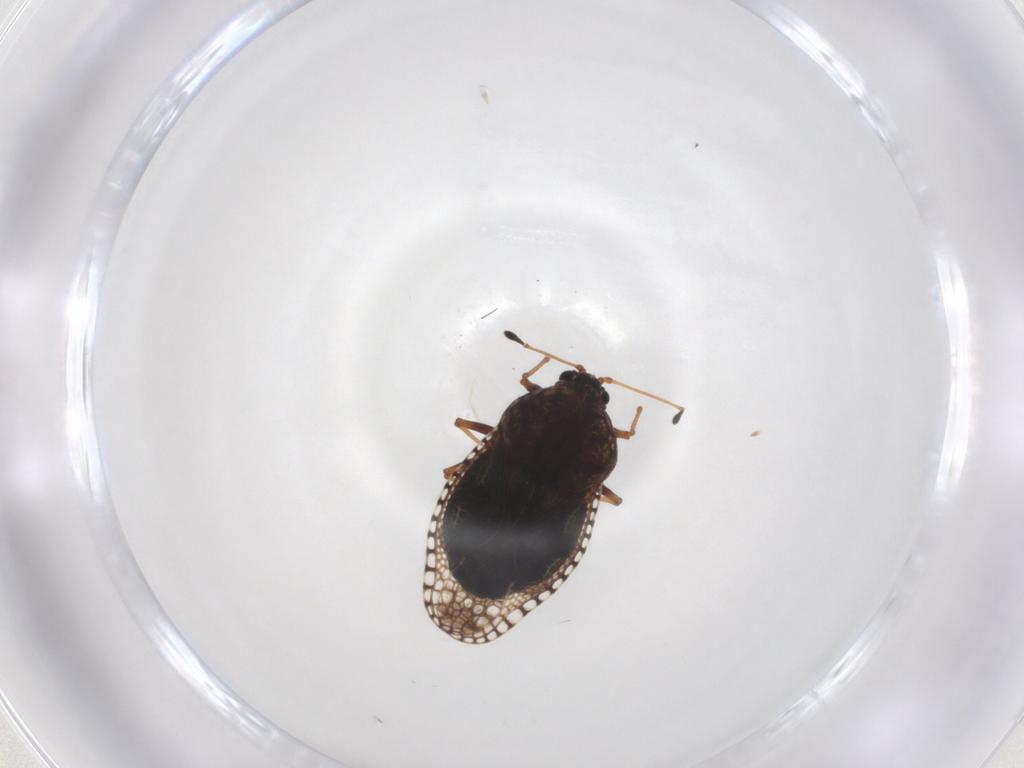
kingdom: Animalia
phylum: Arthropoda
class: Insecta
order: Hemiptera
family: Tingidae
